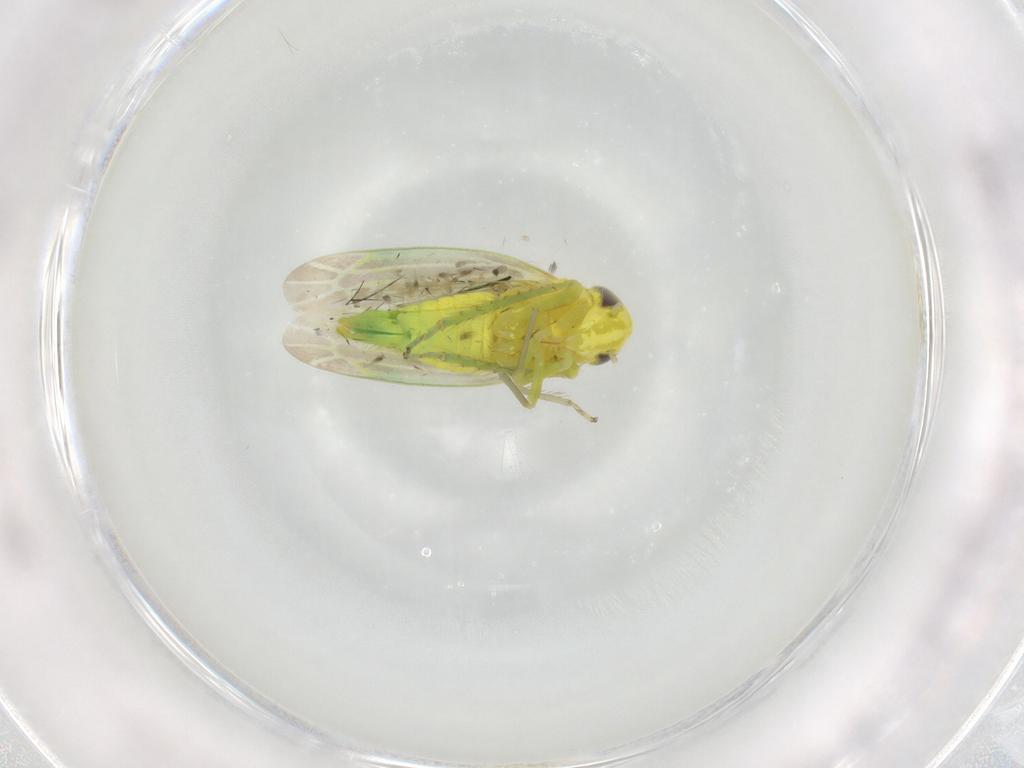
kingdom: Animalia
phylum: Arthropoda
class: Insecta
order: Hemiptera
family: Cicadellidae
